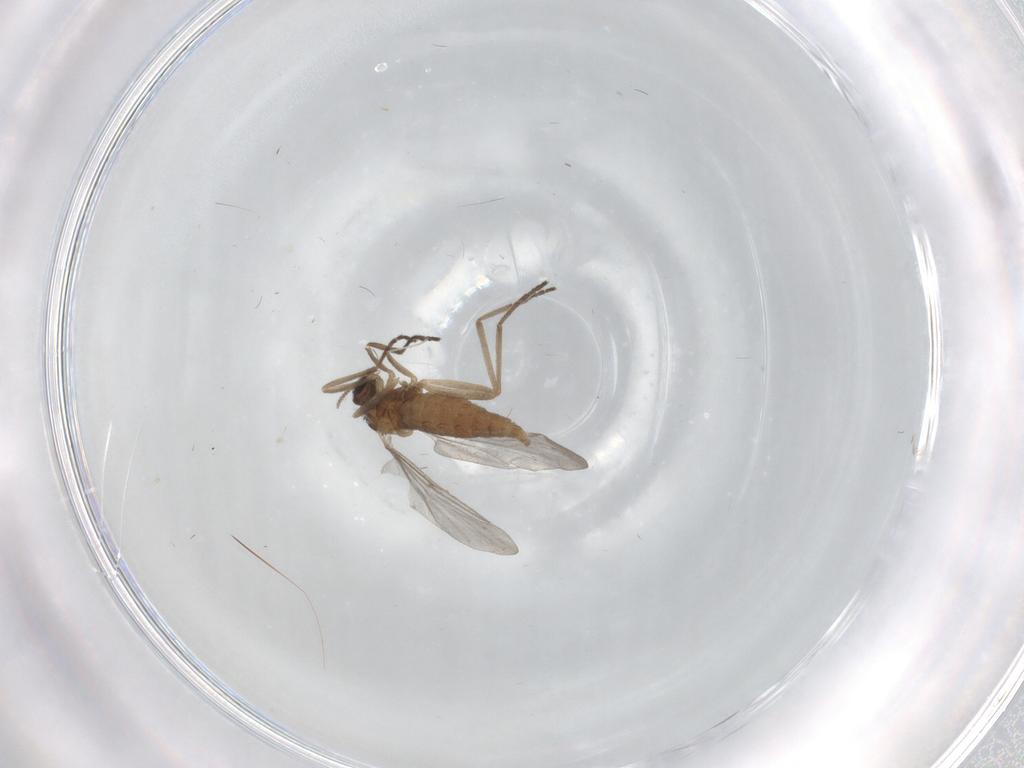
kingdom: Animalia
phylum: Arthropoda
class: Insecta
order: Diptera
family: Cecidomyiidae
